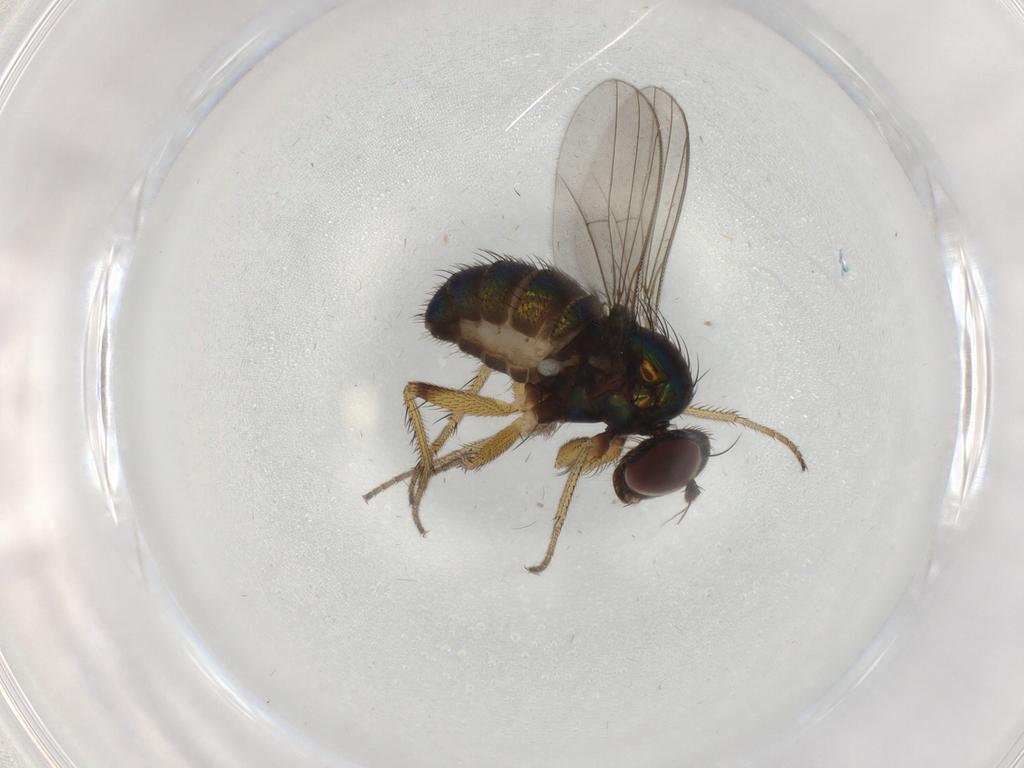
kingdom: Animalia
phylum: Arthropoda
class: Insecta
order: Diptera
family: Dolichopodidae
